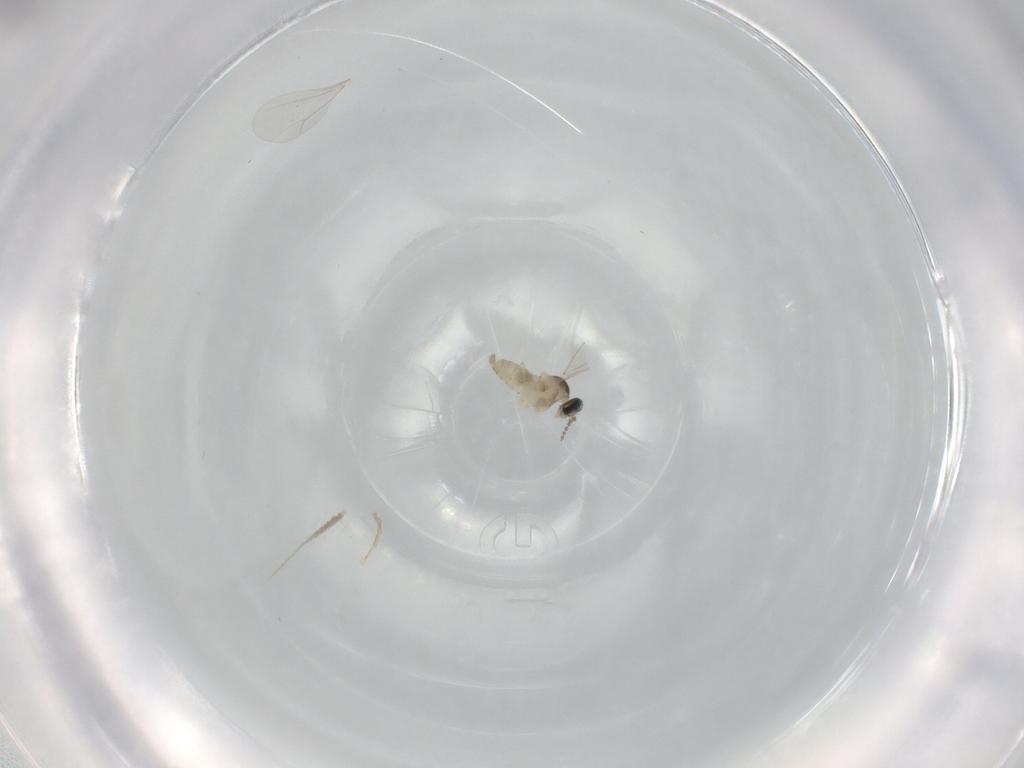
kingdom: Animalia
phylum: Arthropoda
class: Insecta
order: Diptera
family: Cecidomyiidae
